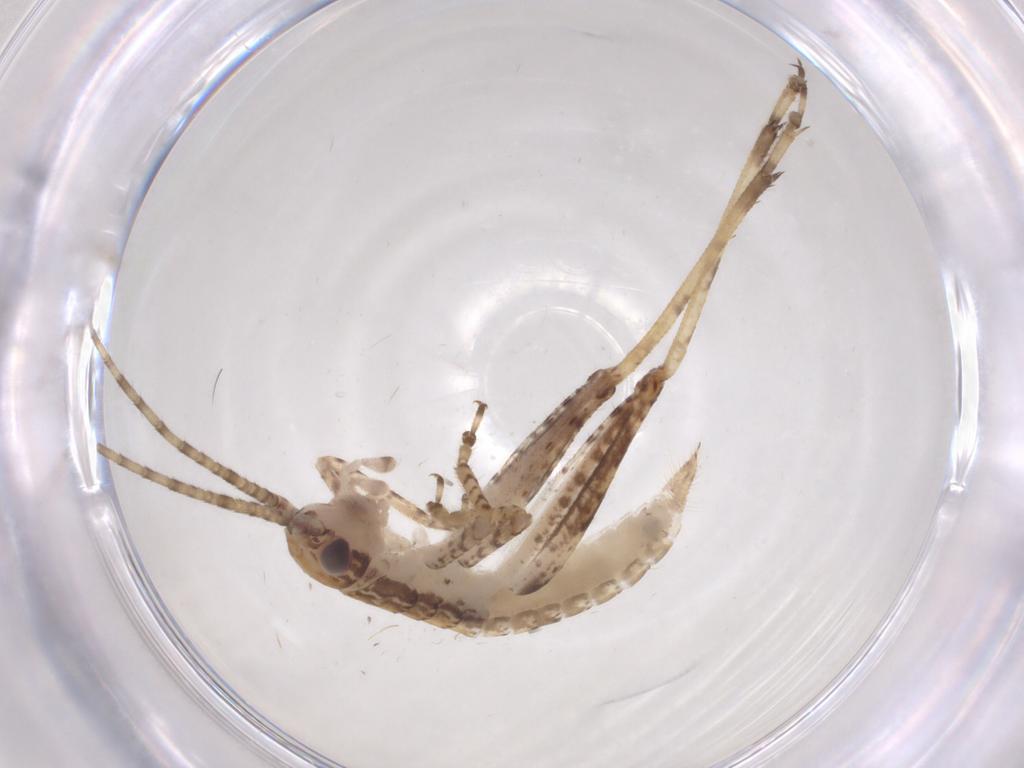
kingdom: Animalia
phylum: Arthropoda
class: Insecta
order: Orthoptera
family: Gryllidae
